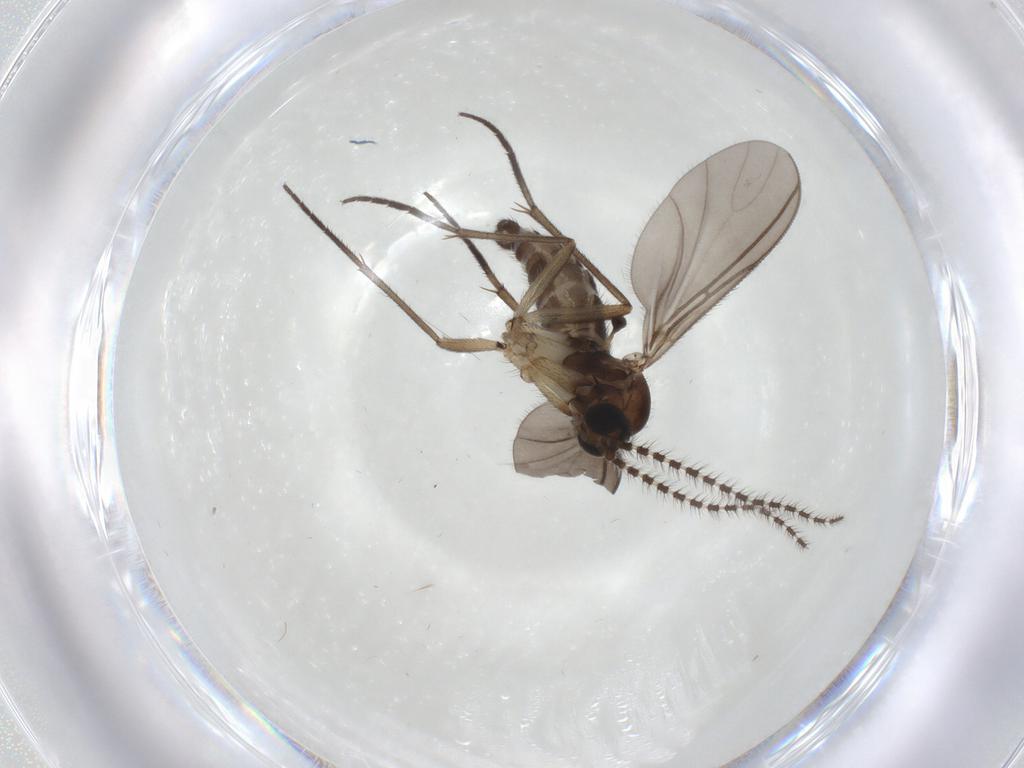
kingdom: Animalia
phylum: Arthropoda
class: Insecta
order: Diptera
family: Sciaridae
